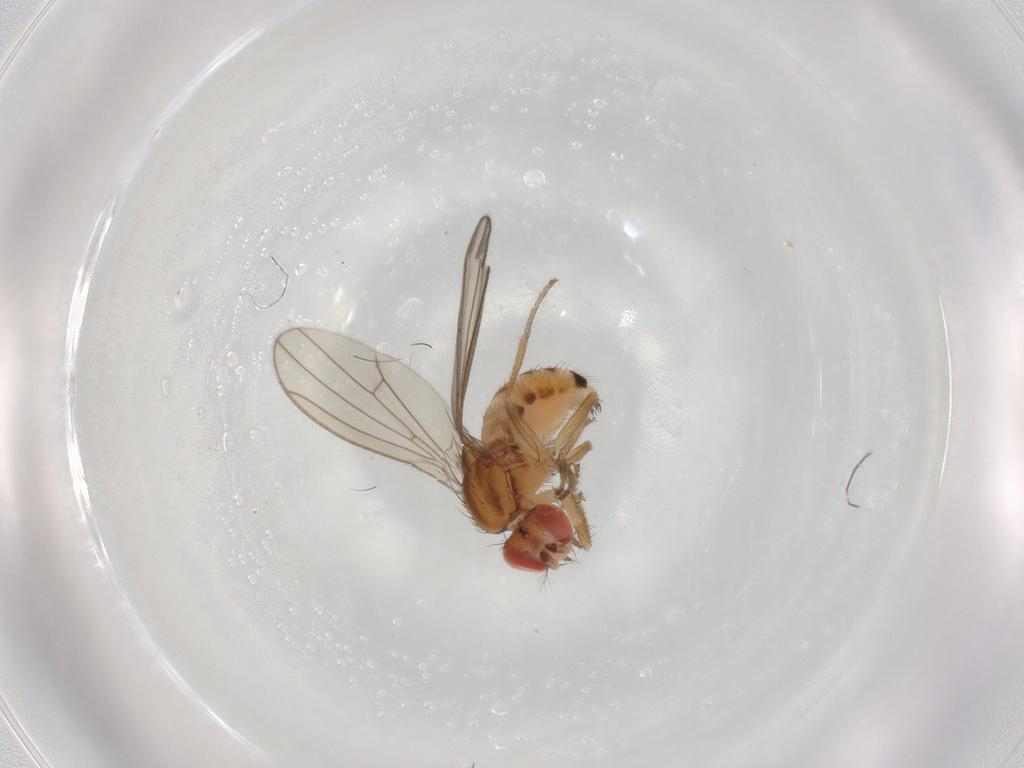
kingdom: Animalia
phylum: Arthropoda
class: Insecta
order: Diptera
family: Drosophilidae
